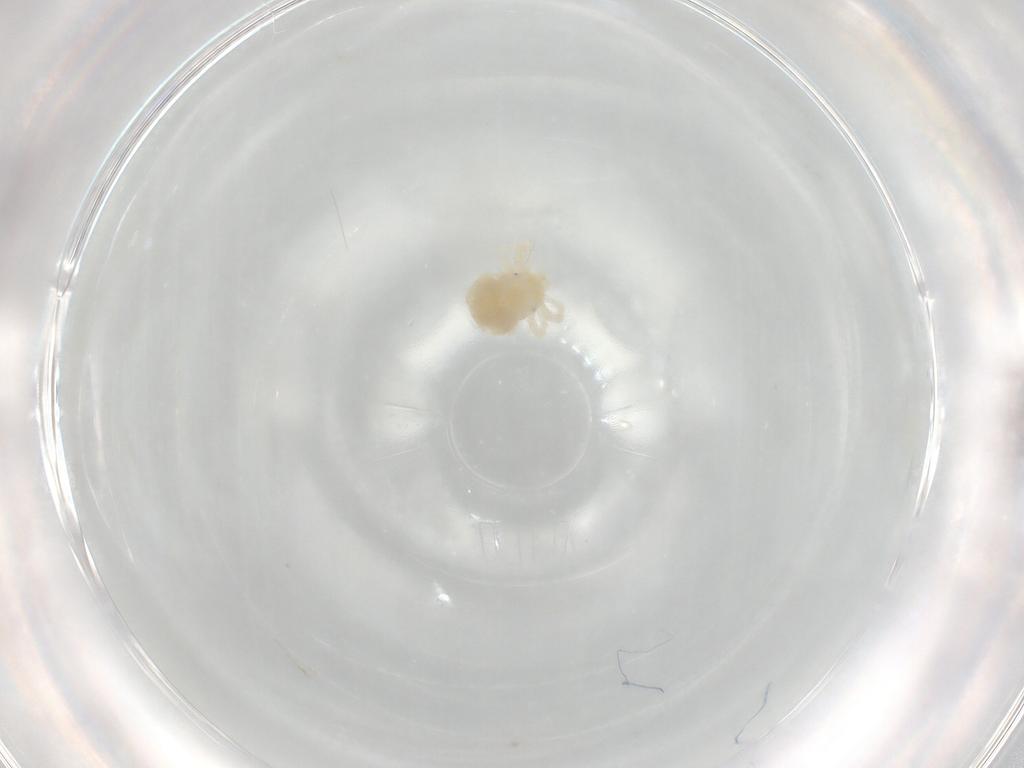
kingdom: Animalia
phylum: Arthropoda
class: Arachnida
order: Trombidiformes
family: Anystidae
